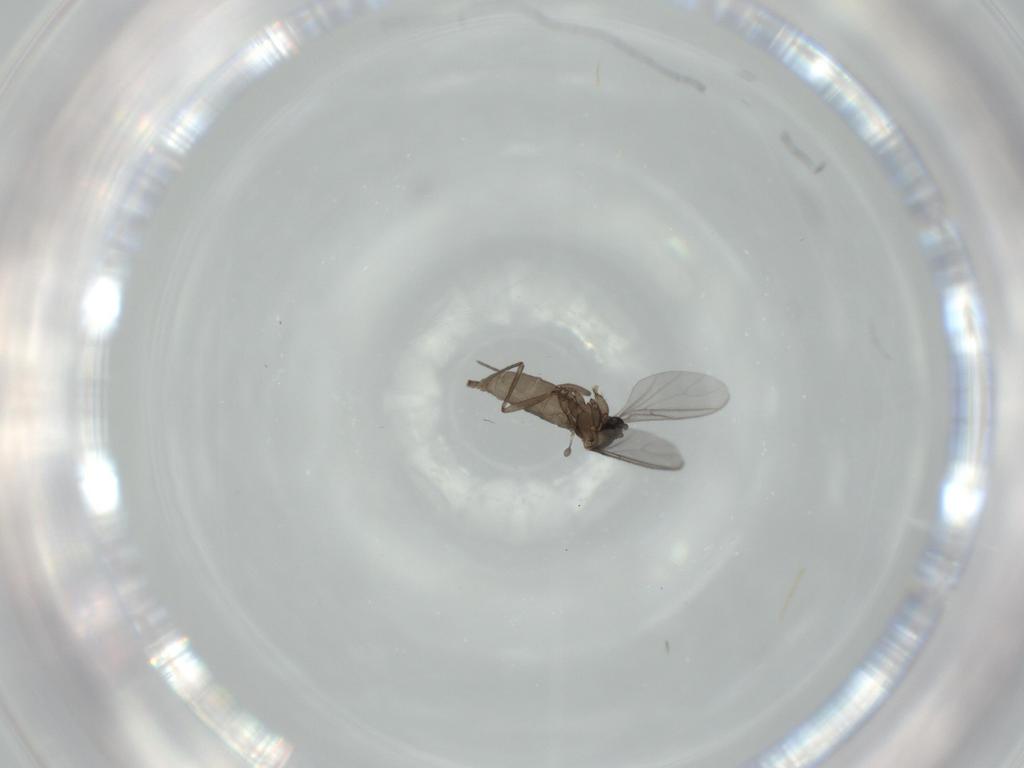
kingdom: Animalia
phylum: Arthropoda
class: Insecta
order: Diptera
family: Sciaridae
